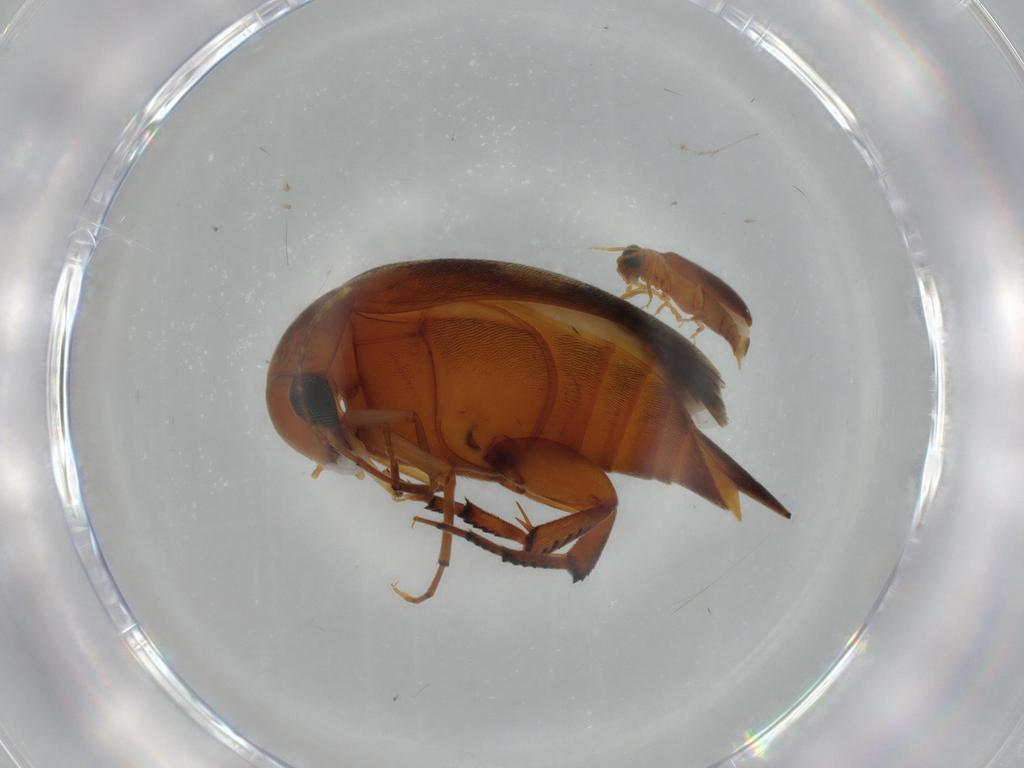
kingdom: Animalia
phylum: Arthropoda
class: Insecta
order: Coleoptera
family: Mordellidae
